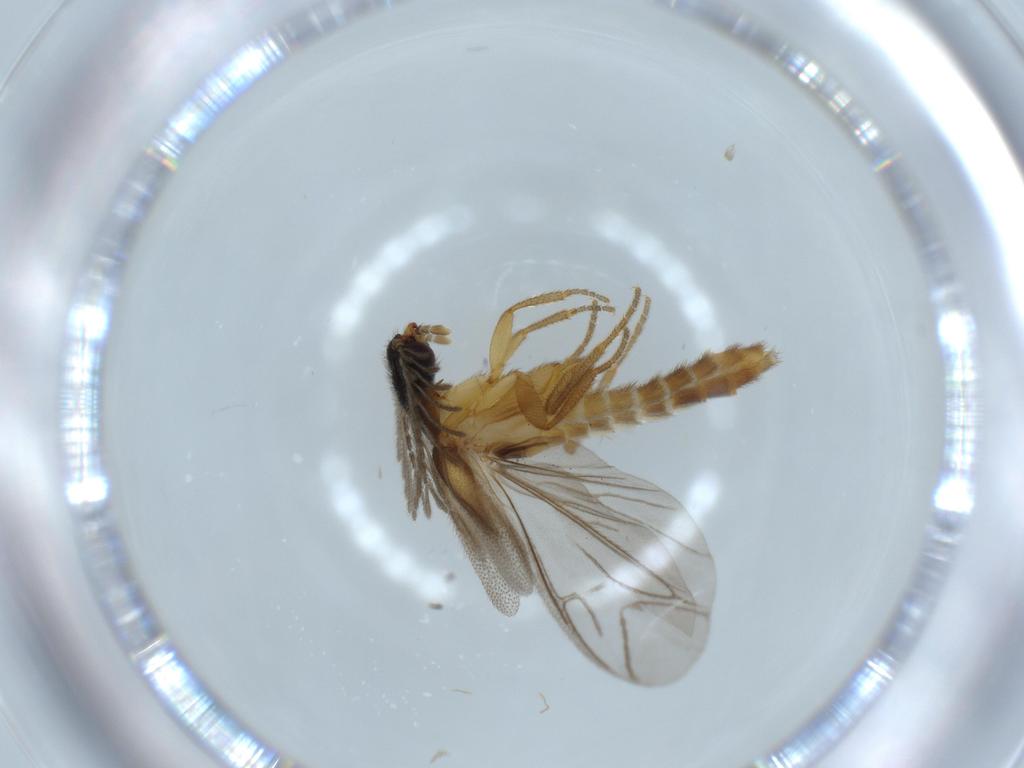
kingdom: Animalia
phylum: Arthropoda
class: Insecta
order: Coleoptera
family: Curculionidae
